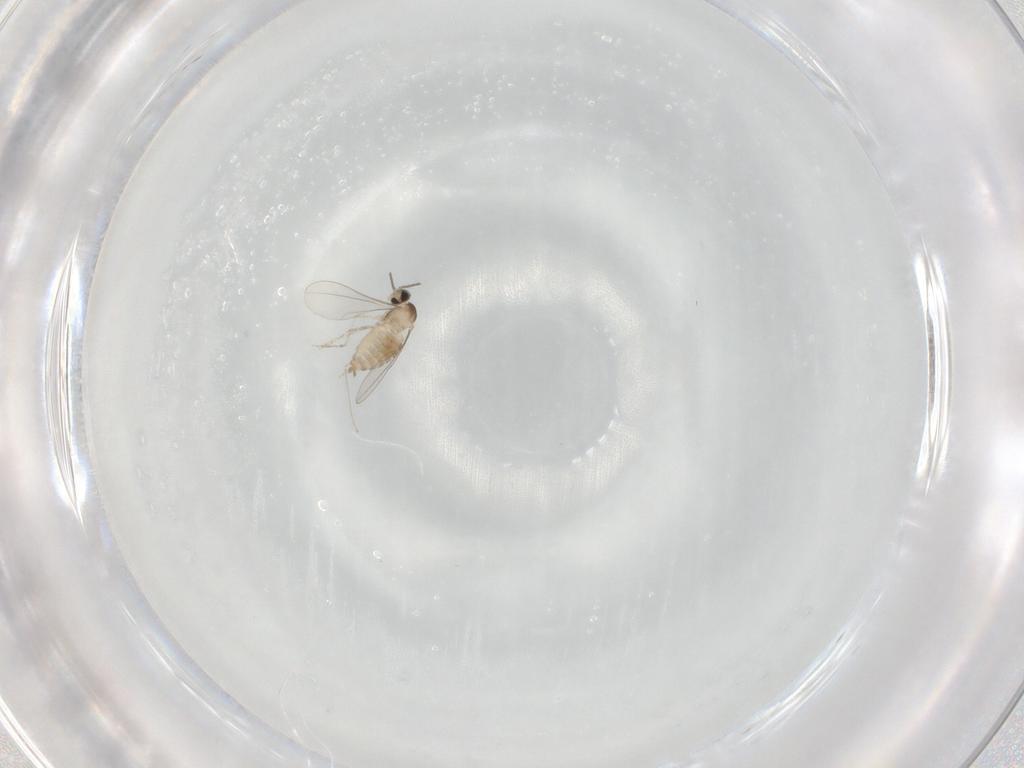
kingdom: Animalia
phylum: Arthropoda
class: Insecta
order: Diptera
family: Cecidomyiidae
